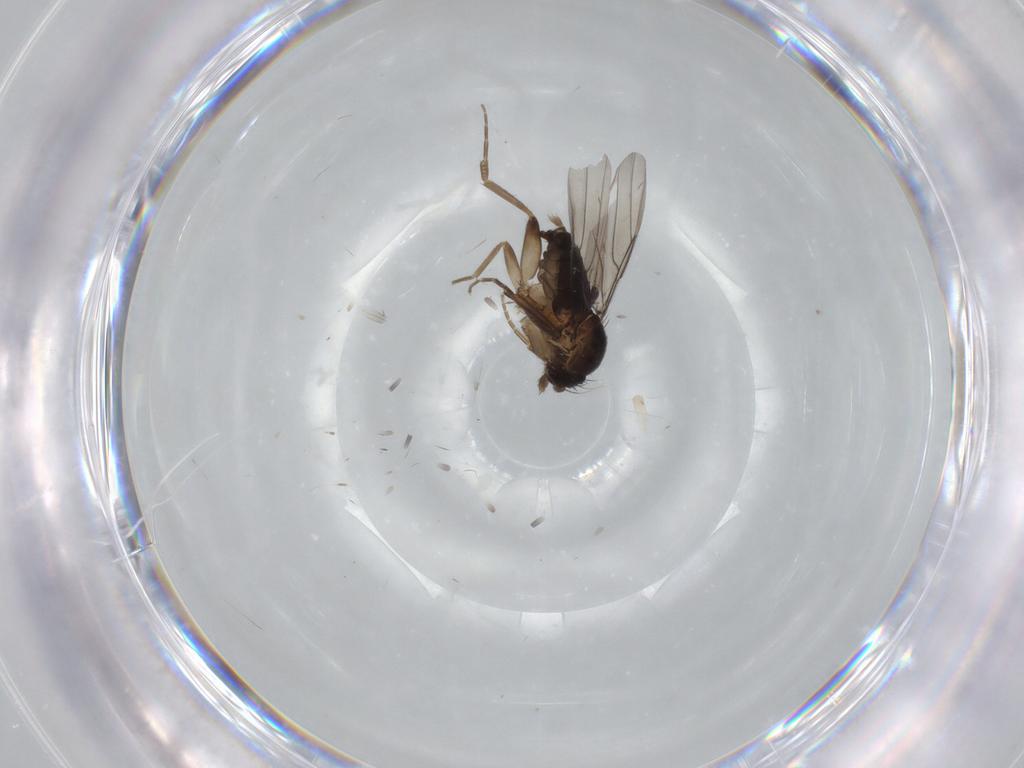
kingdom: Animalia
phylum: Arthropoda
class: Insecta
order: Diptera
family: Phoridae
